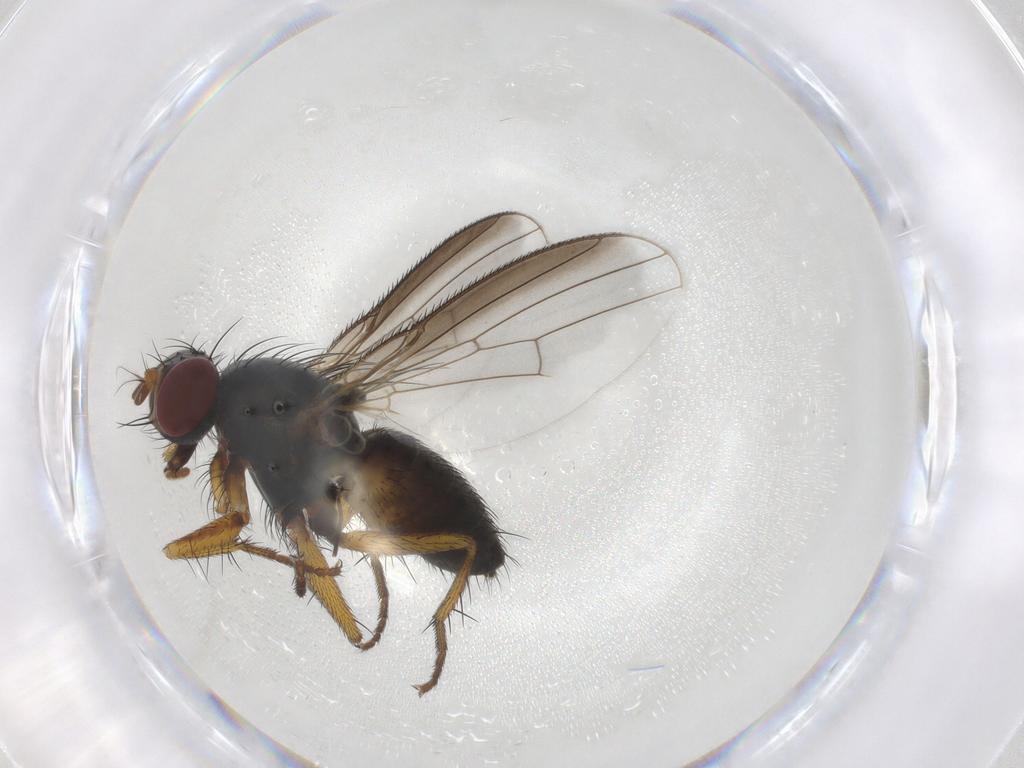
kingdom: Animalia
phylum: Arthropoda
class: Insecta
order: Diptera
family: Muscidae
